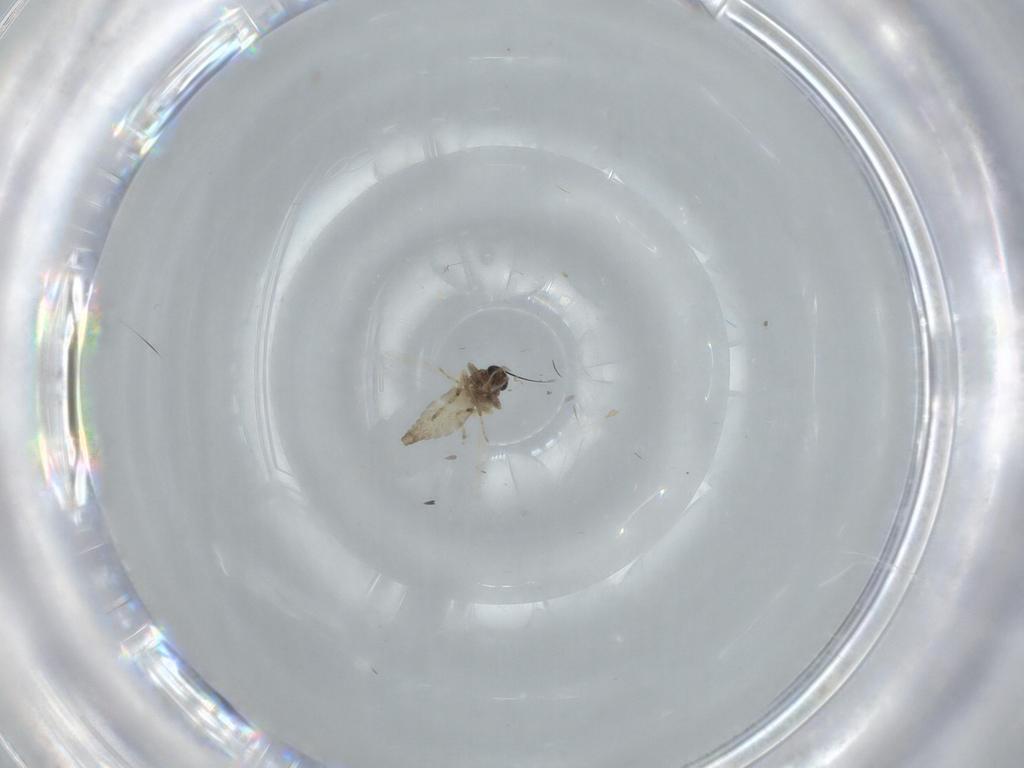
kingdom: Animalia
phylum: Arthropoda
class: Insecta
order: Diptera
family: Ceratopogonidae
